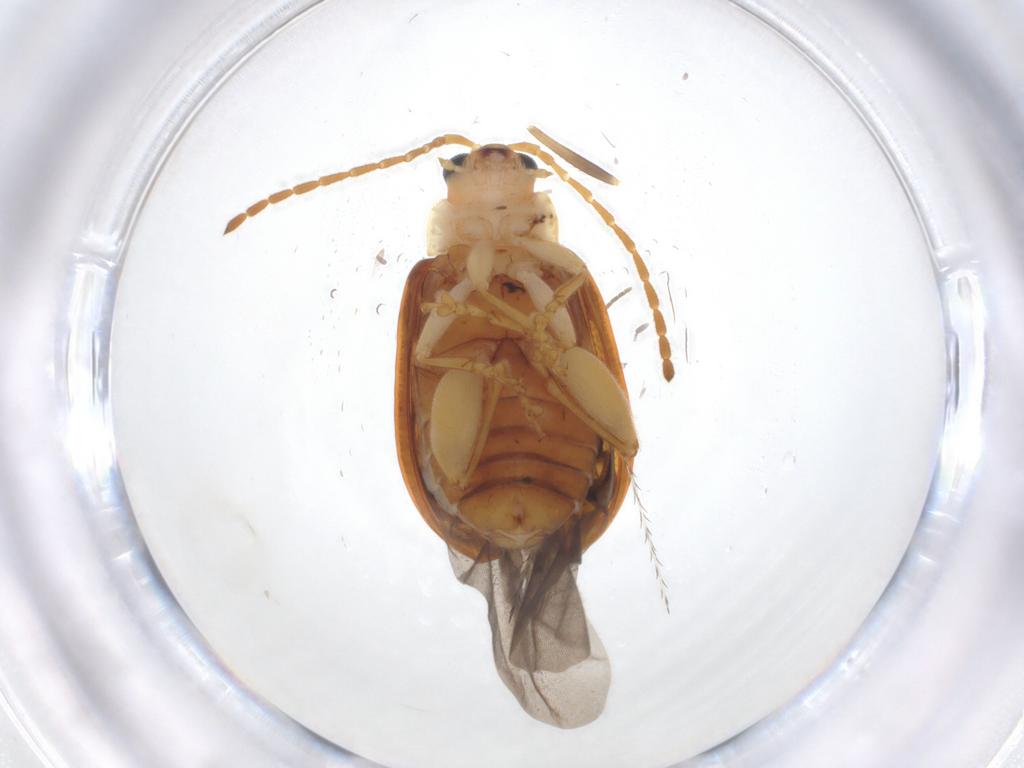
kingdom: Animalia
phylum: Arthropoda
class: Insecta
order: Coleoptera
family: Chrysomelidae
